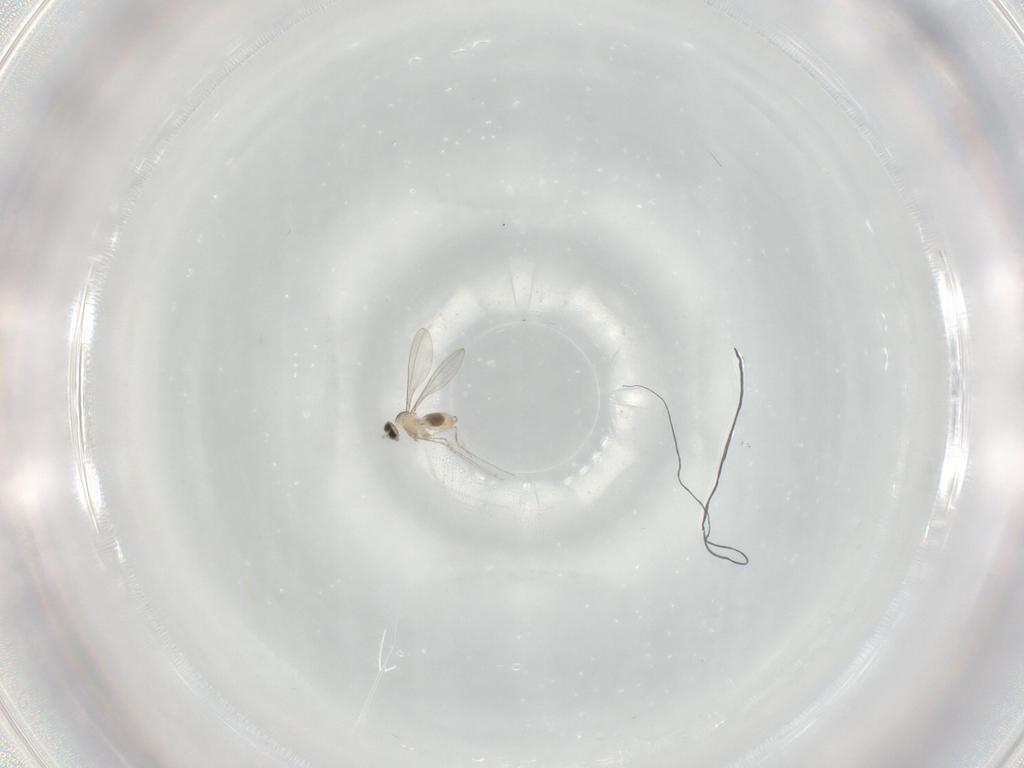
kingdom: Animalia
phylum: Arthropoda
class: Insecta
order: Diptera
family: Cecidomyiidae
